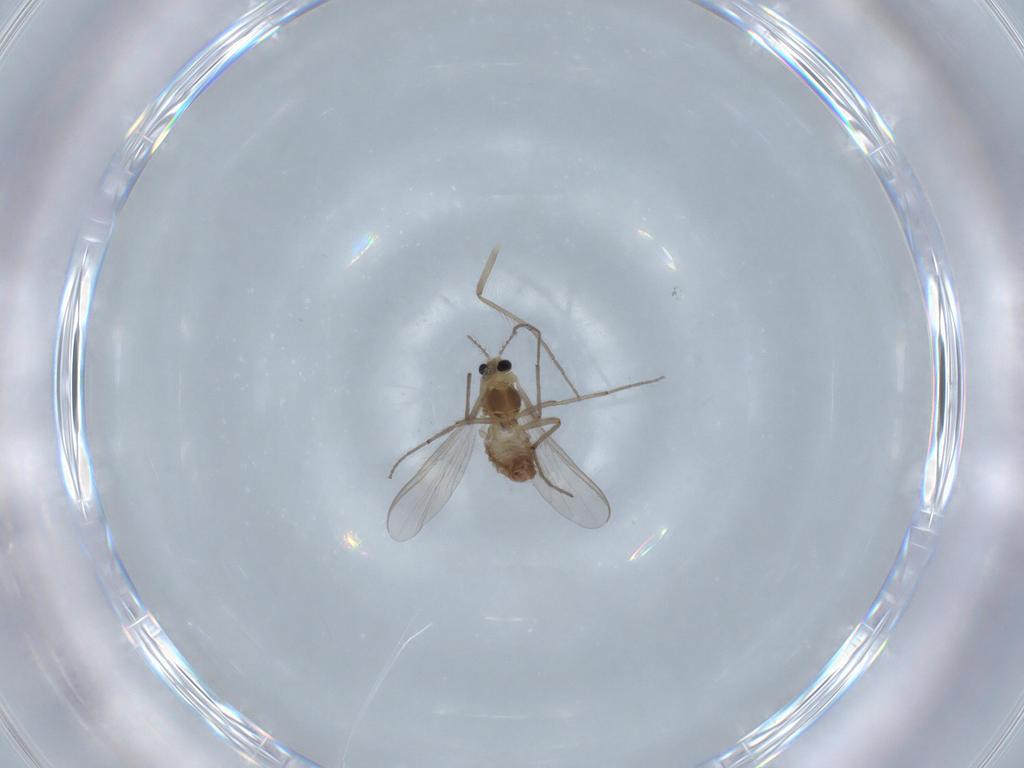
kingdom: Animalia
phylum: Arthropoda
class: Insecta
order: Diptera
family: Chironomidae
